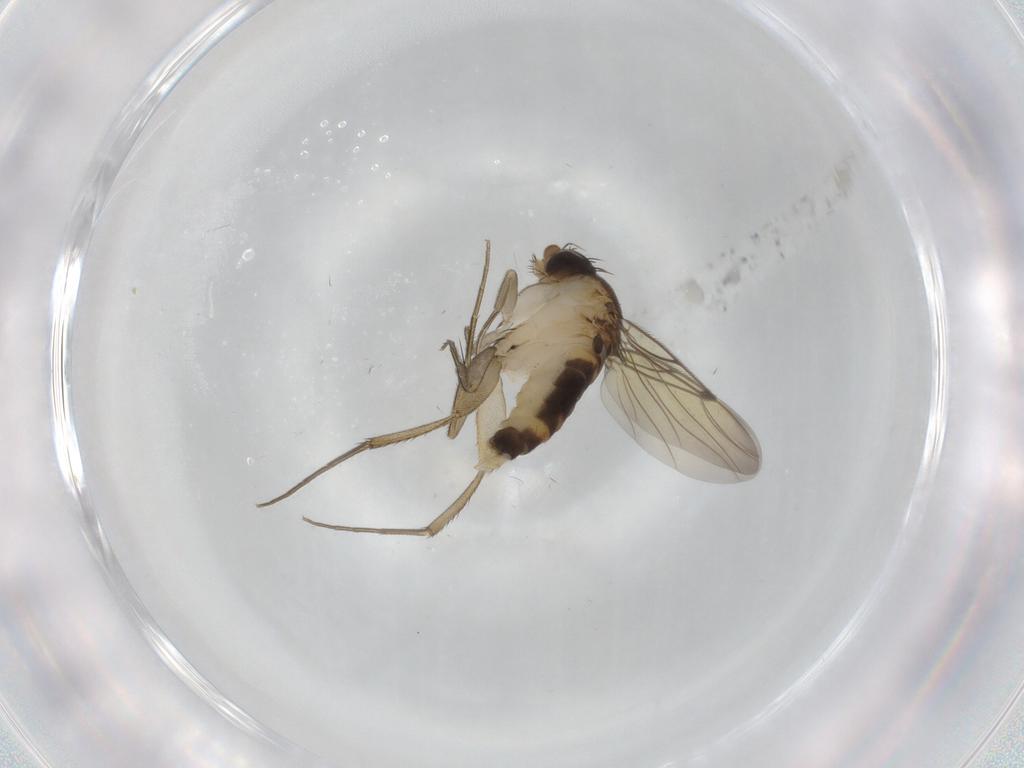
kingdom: Animalia
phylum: Arthropoda
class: Insecta
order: Diptera
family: Phoridae
